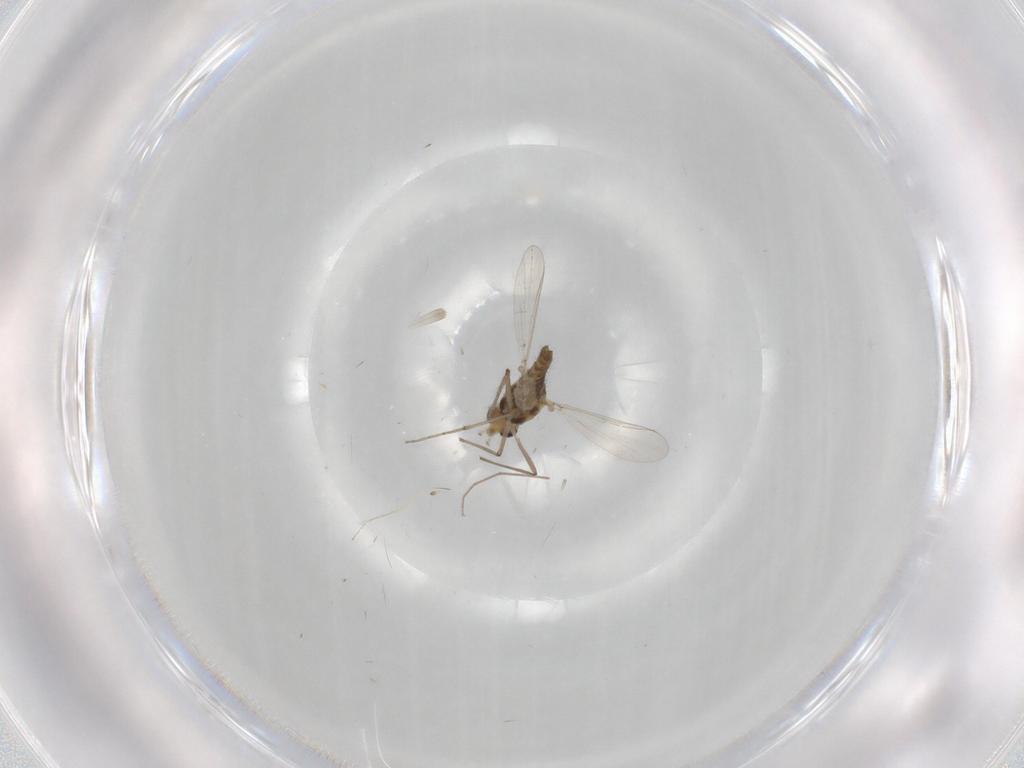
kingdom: Animalia
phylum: Arthropoda
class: Insecta
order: Diptera
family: Chironomidae
